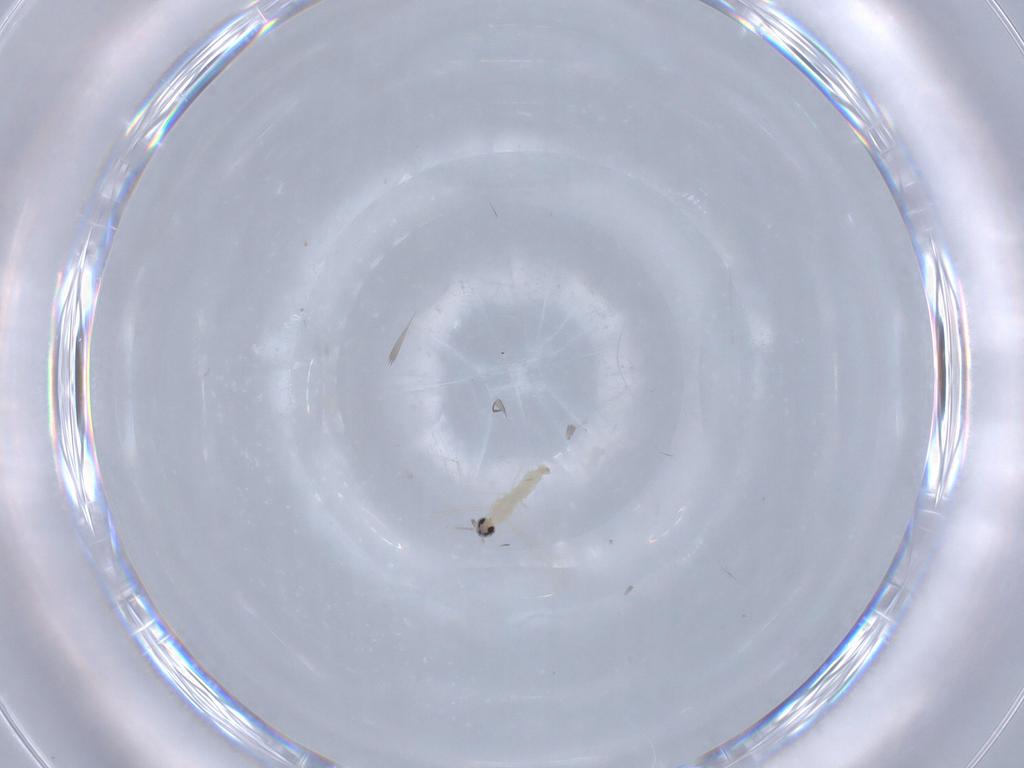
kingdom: Animalia
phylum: Arthropoda
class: Insecta
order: Diptera
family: Cecidomyiidae
